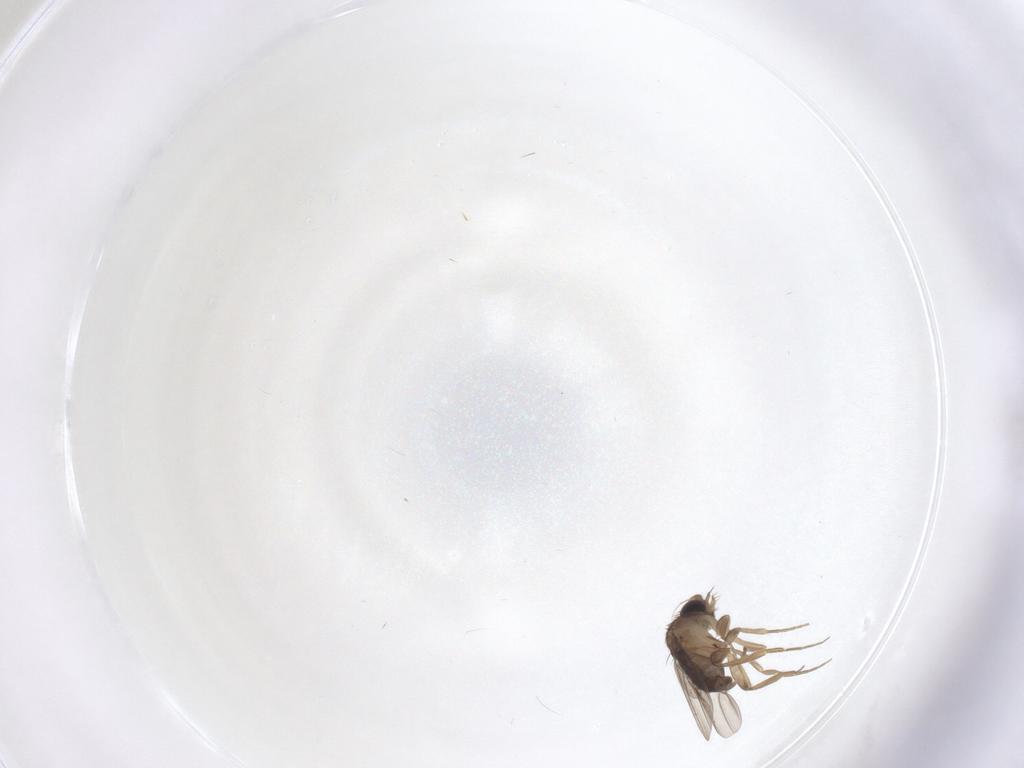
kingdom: Animalia
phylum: Arthropoda
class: Insecta
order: Diptera
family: Phoridae
